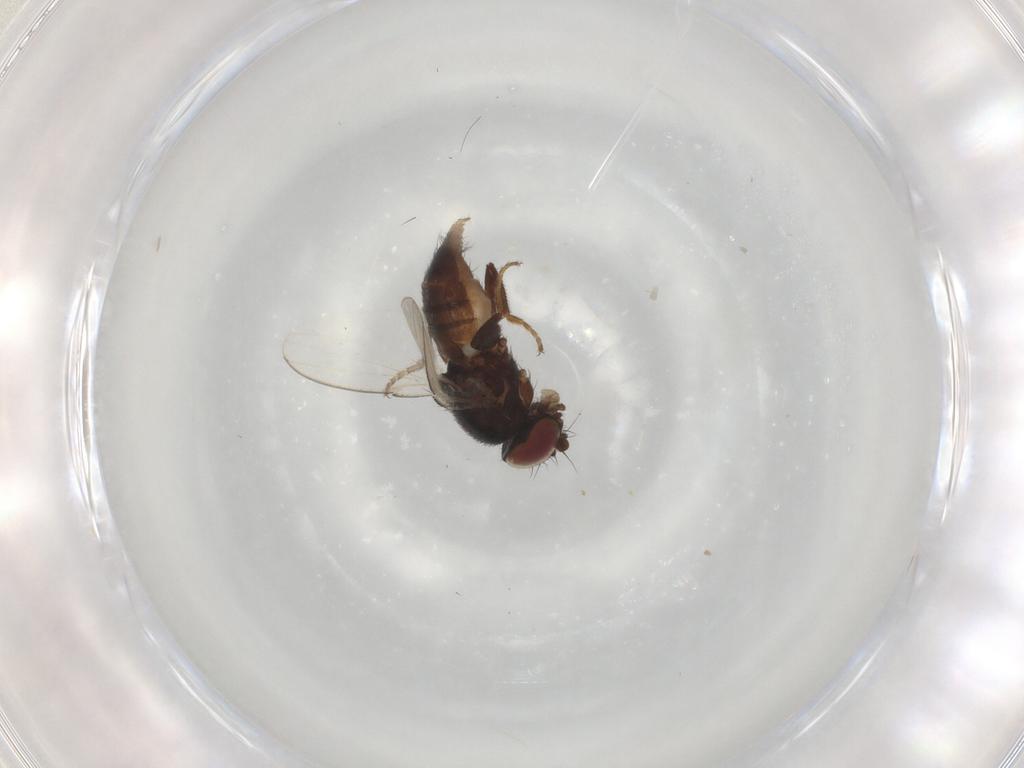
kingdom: Animalia
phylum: Arthropoda
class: Insecta
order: Diptera
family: Milichiidae
